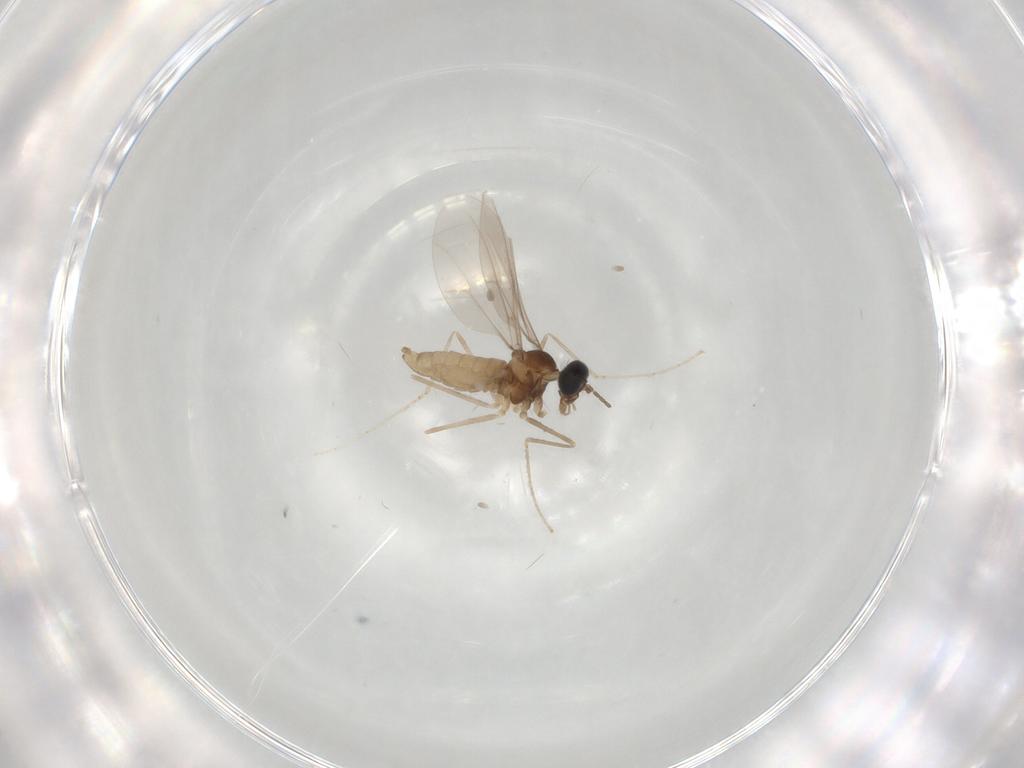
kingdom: Animalia
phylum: Arthropoda
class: Insecta
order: Diptera
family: Cecidomyiidae
